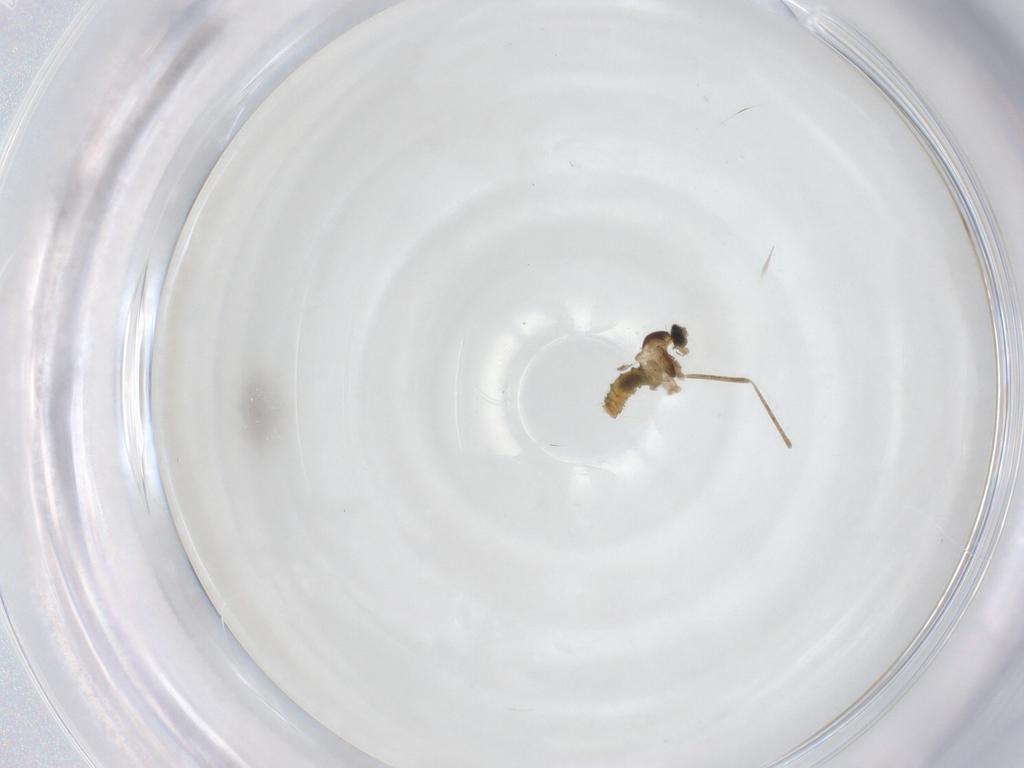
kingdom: Animalia
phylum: Arthropoda
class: Insecta
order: Diptera
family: Cecidomyiidae
